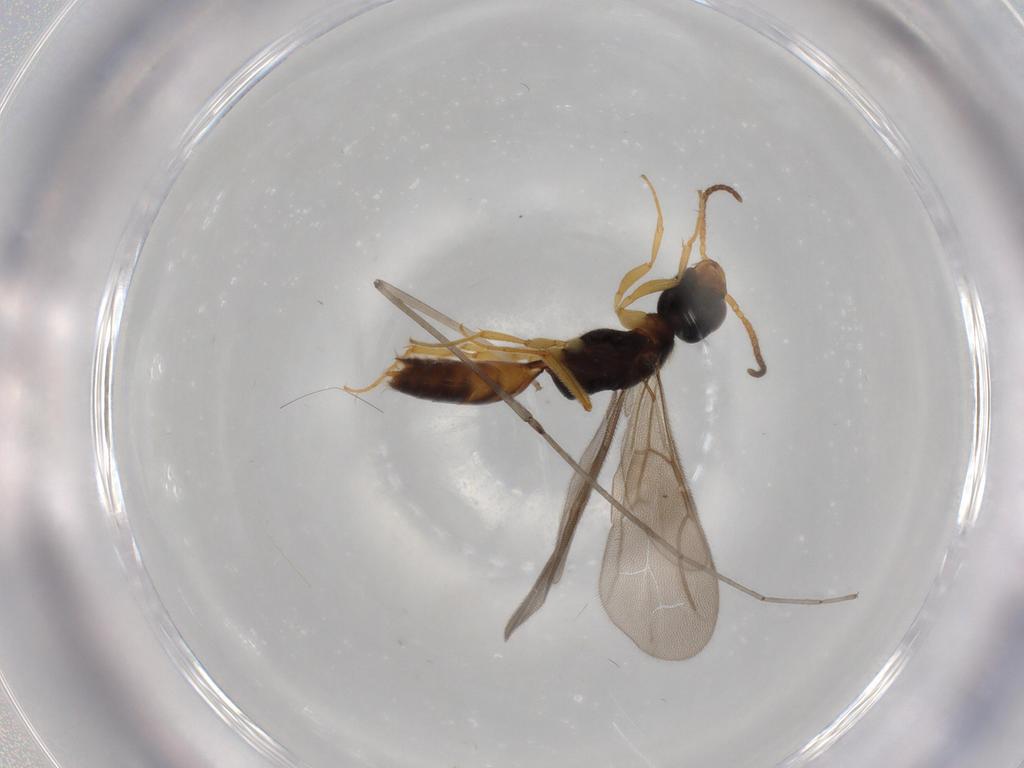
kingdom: Animalia
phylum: Arthropoda
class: Insecta
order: Hymenoptera
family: Bethylidae
